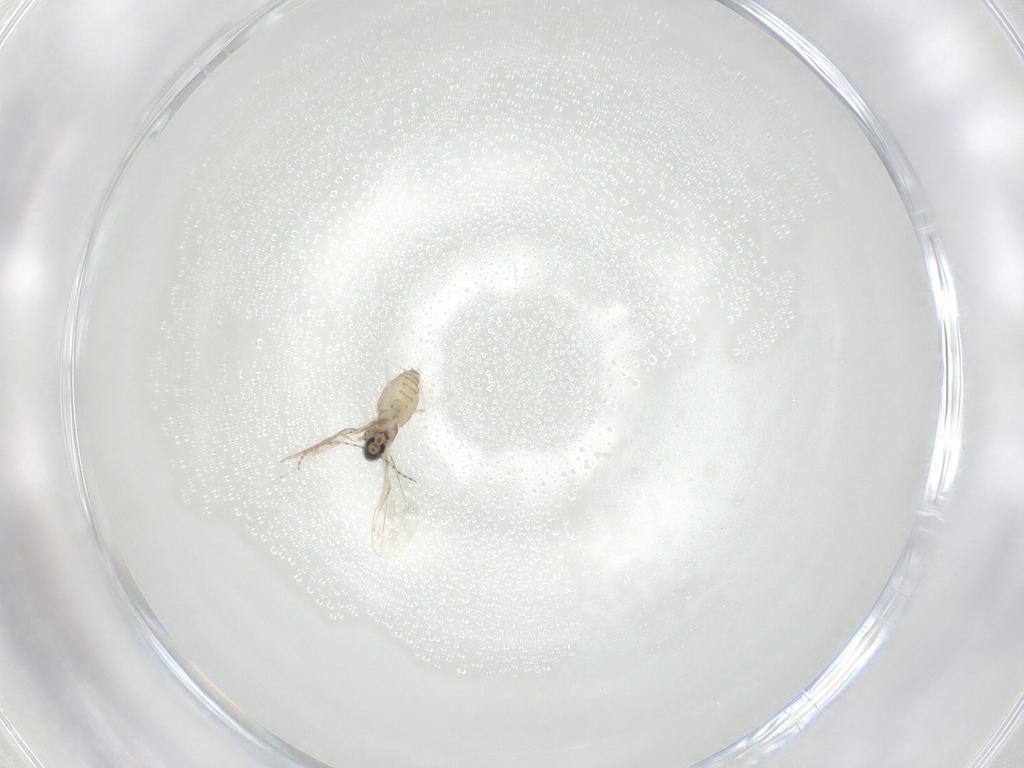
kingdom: Animalia
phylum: Arthropoda
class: Insecta
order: Diptera
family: Cecidomyiidae
